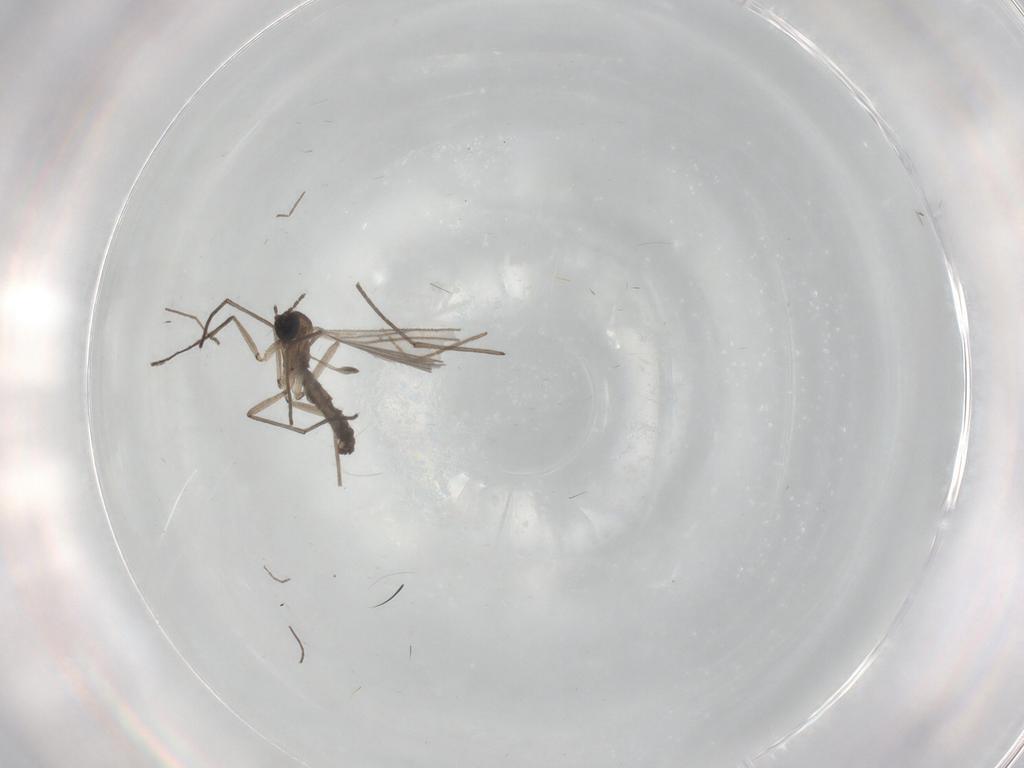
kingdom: Animalia
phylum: Arthropoda
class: Insecta
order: Diptera
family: Sciaridae
